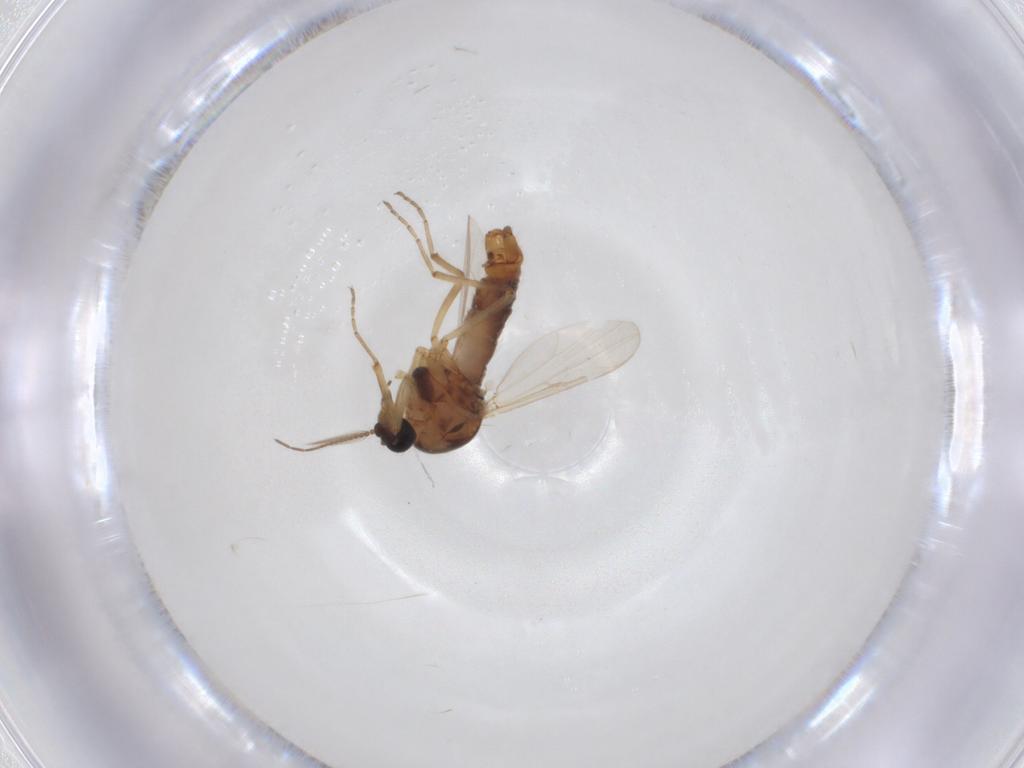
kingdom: Animalia
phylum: Arthropoda
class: Insecta
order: Diptera
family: Ceratopogonidae
